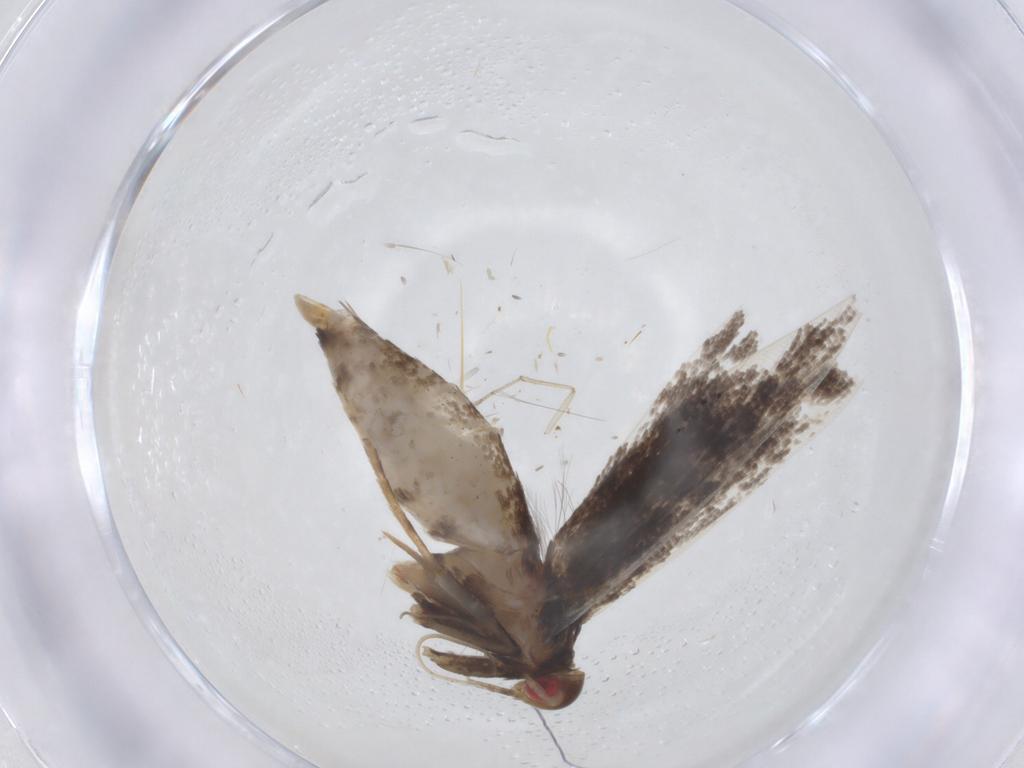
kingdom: Animalia
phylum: Arthropoda
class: Insecta
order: Lepidoptera
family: Gelechiidae
